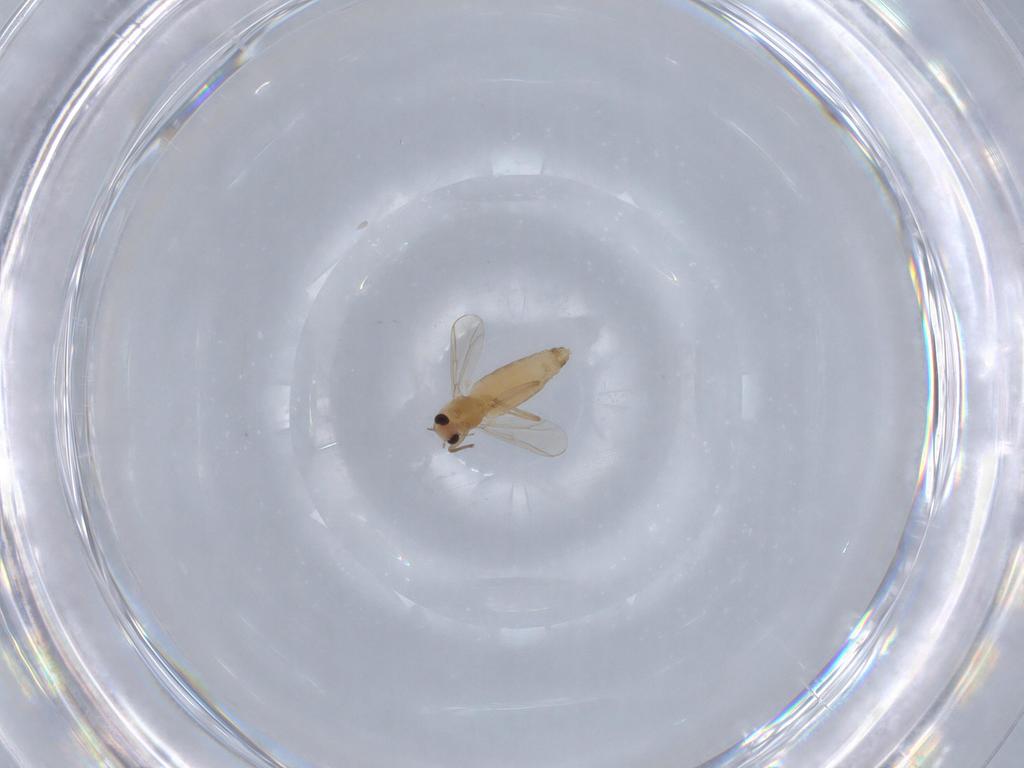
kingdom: Animalia
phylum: Arthropoda
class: Insecta
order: Diptera
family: Chironomidae
